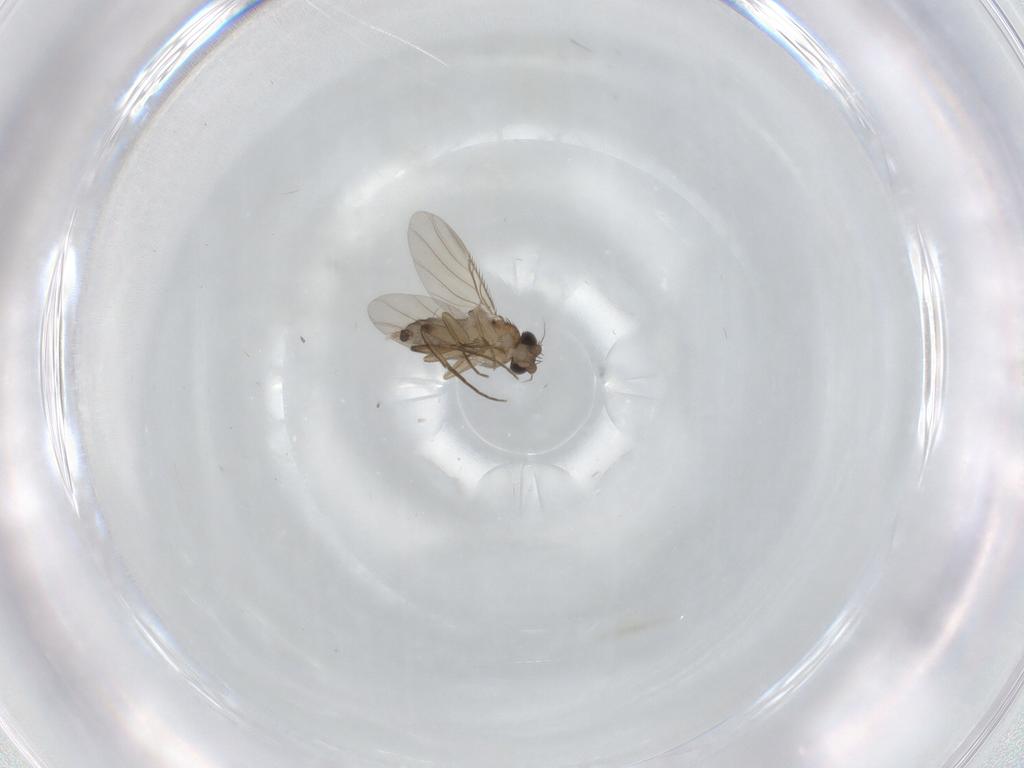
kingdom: Animalia
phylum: Arthropoda
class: Insecta
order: Diptera
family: Phoridae
